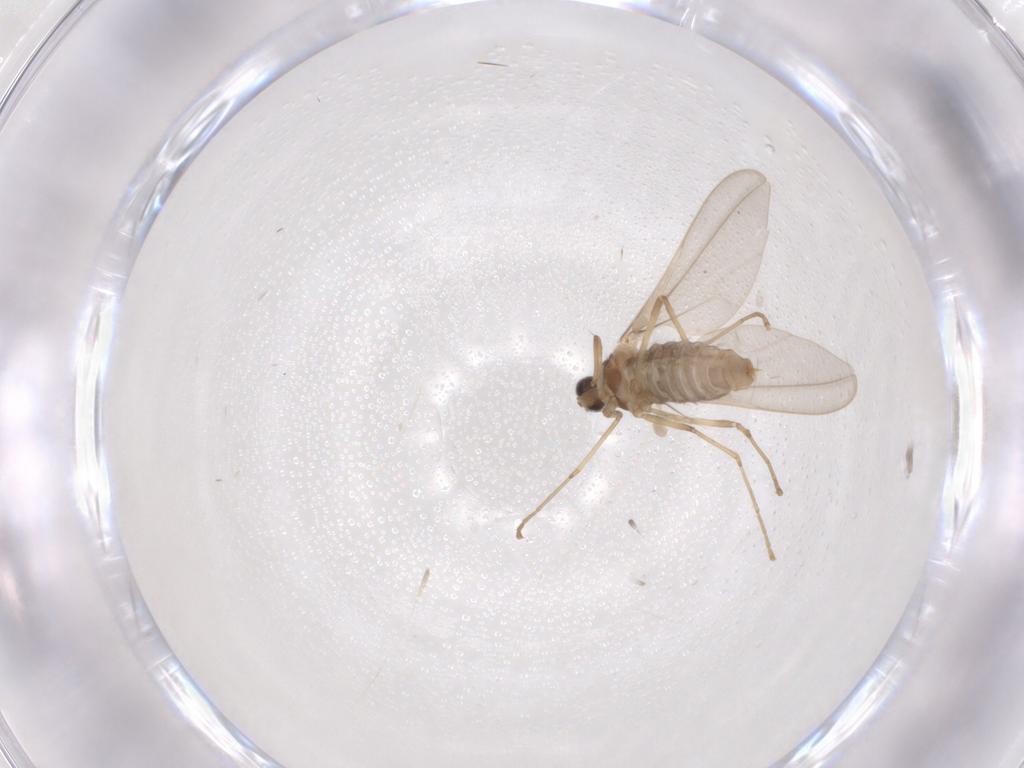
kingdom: Animalia
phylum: Arthropoda
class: Insecta
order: Diptera
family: Cecidomyiidae
